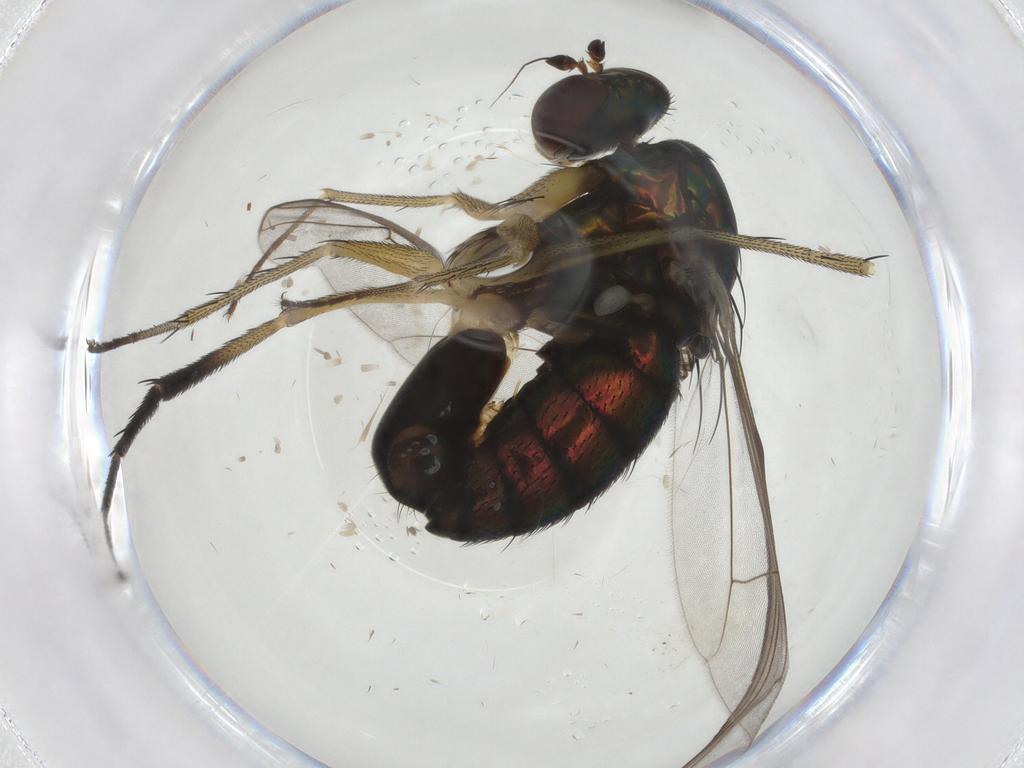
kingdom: Animalia
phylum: Arthropoda
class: Insecta
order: Diptera
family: Dolichopodidae
